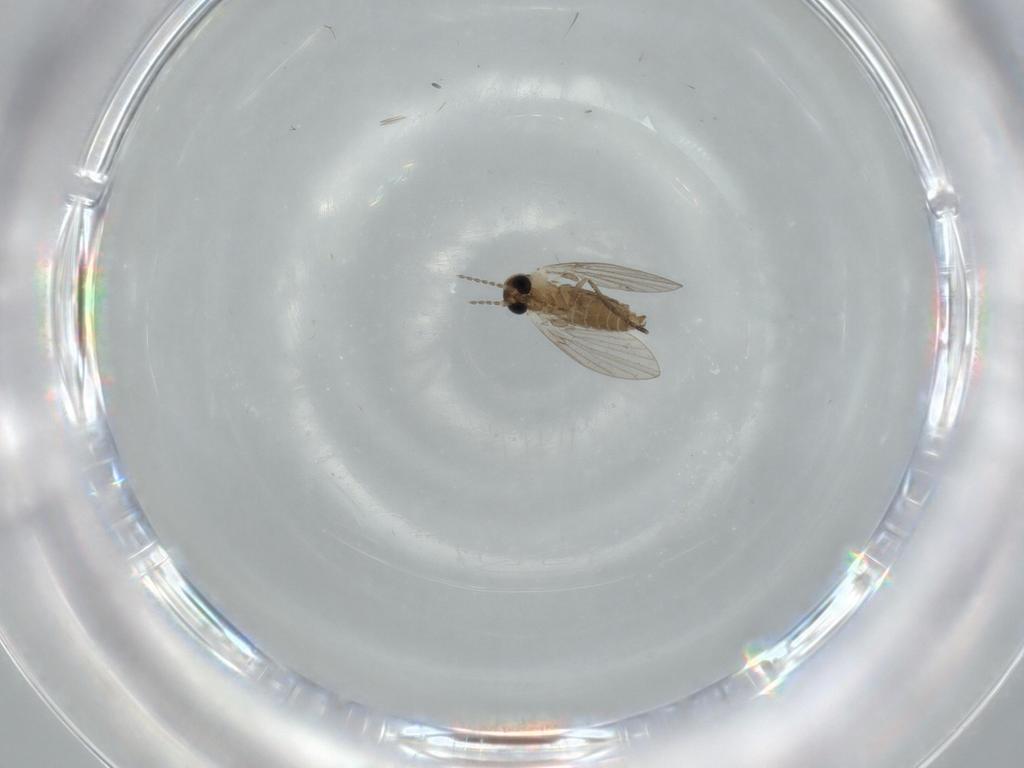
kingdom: Animalia
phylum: Arthropoda
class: Insecta
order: Diptera
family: Psychodidae
